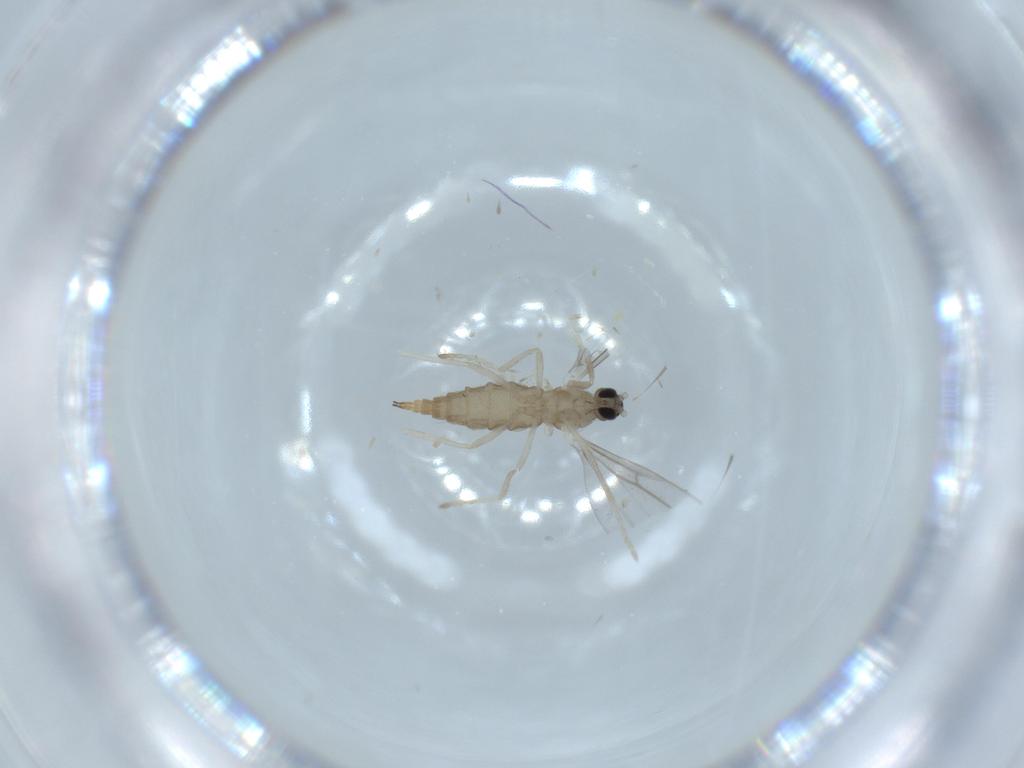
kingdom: Animalia
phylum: Arthropoda
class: Insecta
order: Diptera
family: Cecidomyiidae
